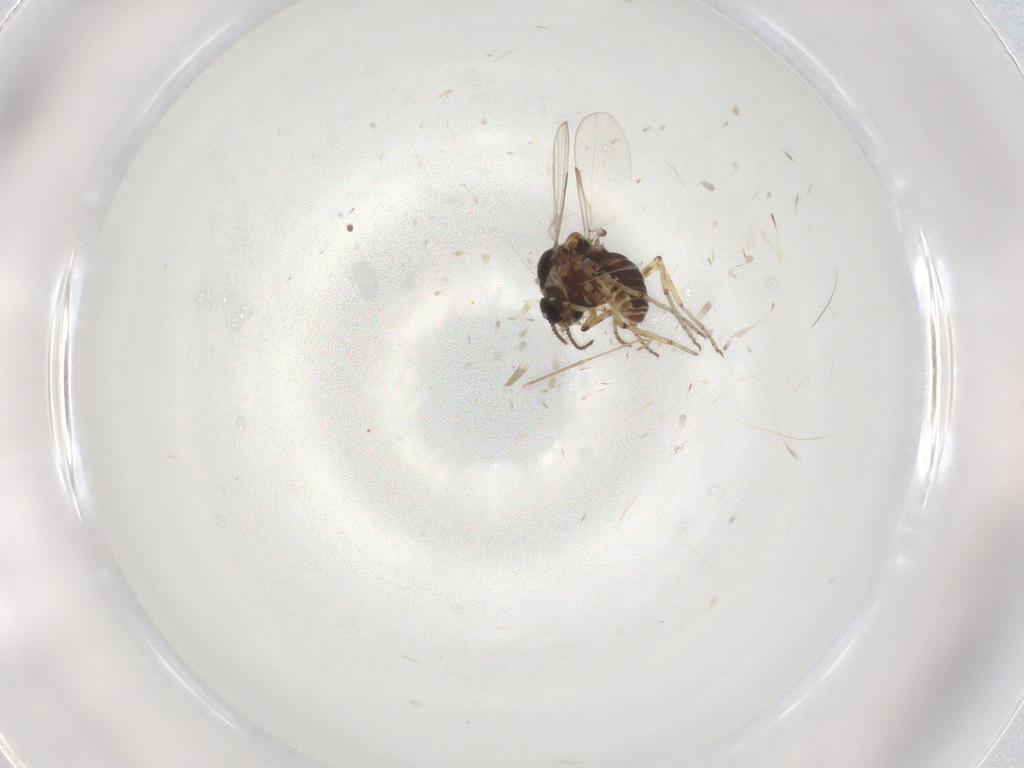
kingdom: Animalia
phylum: Arthropoda
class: Insecta
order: Diptera
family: Ceratopogonidae
